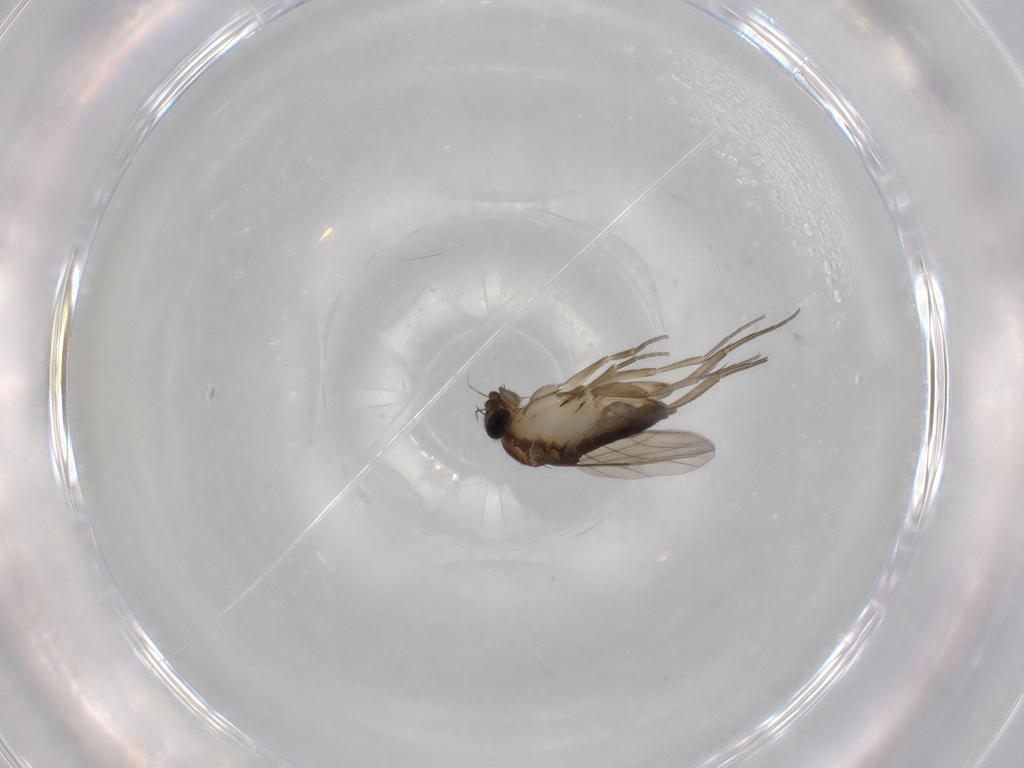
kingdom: Animalia
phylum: Arthropoda
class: Insecta
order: Diptera
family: Phoridae
